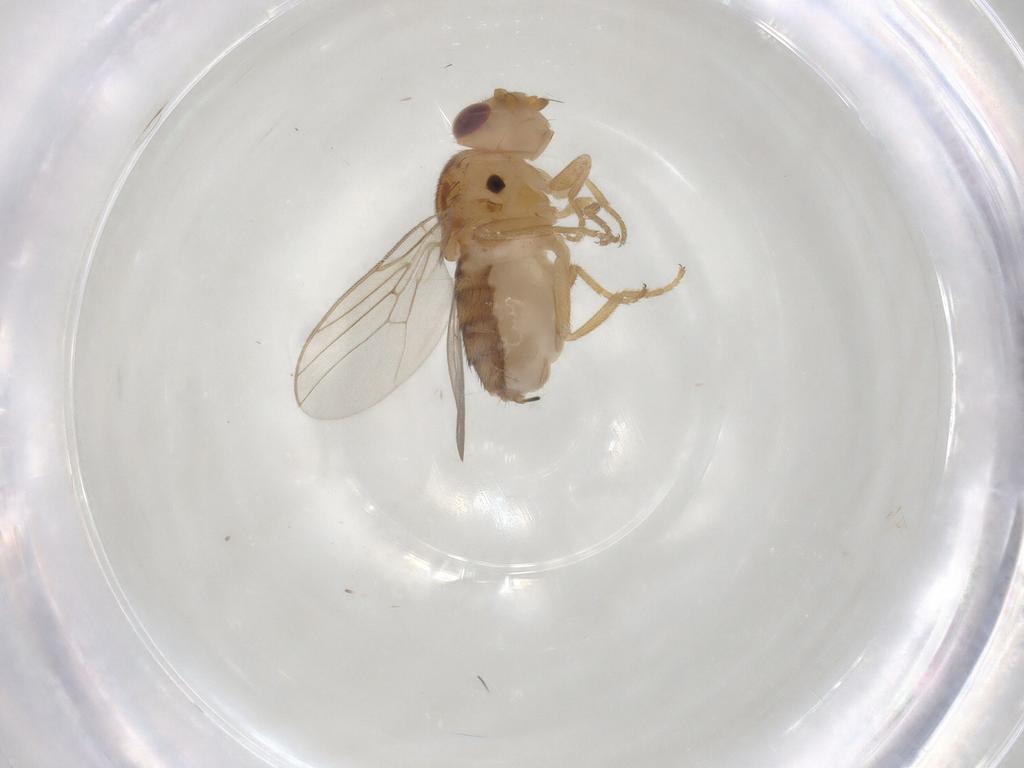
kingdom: Animalia
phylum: Arthropoda
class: Insecta
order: Diptera
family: Chloropidae
